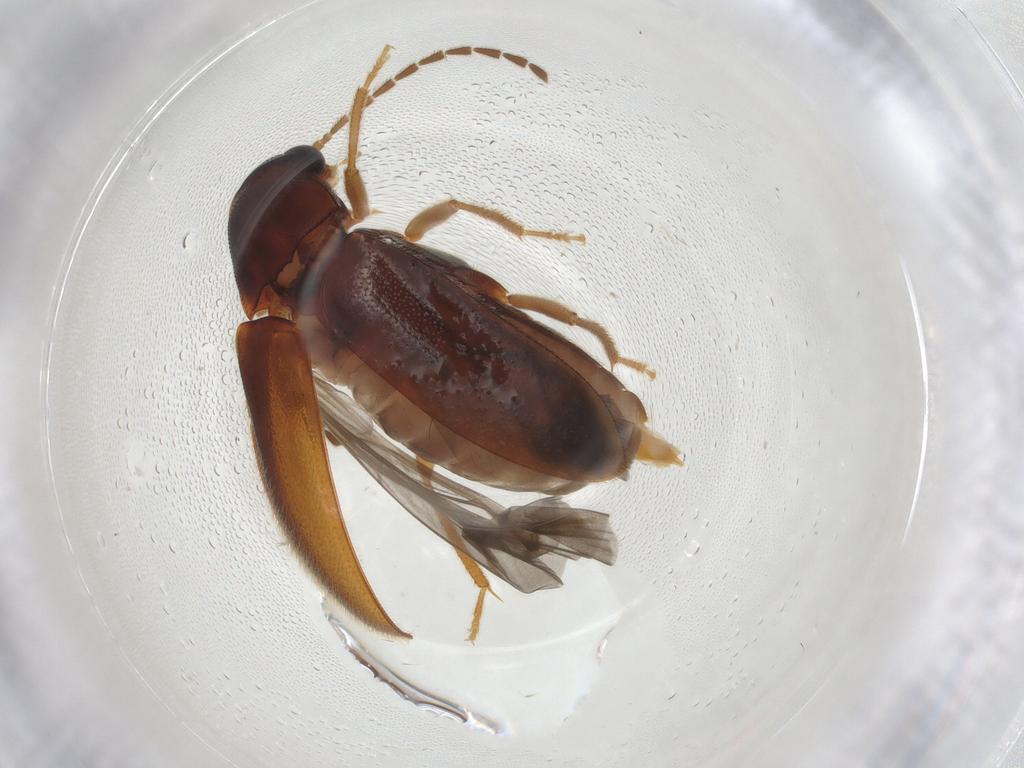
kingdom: Animalia
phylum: Arthropoda
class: Insecta
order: Coleoptera
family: Ptilodactylidae
